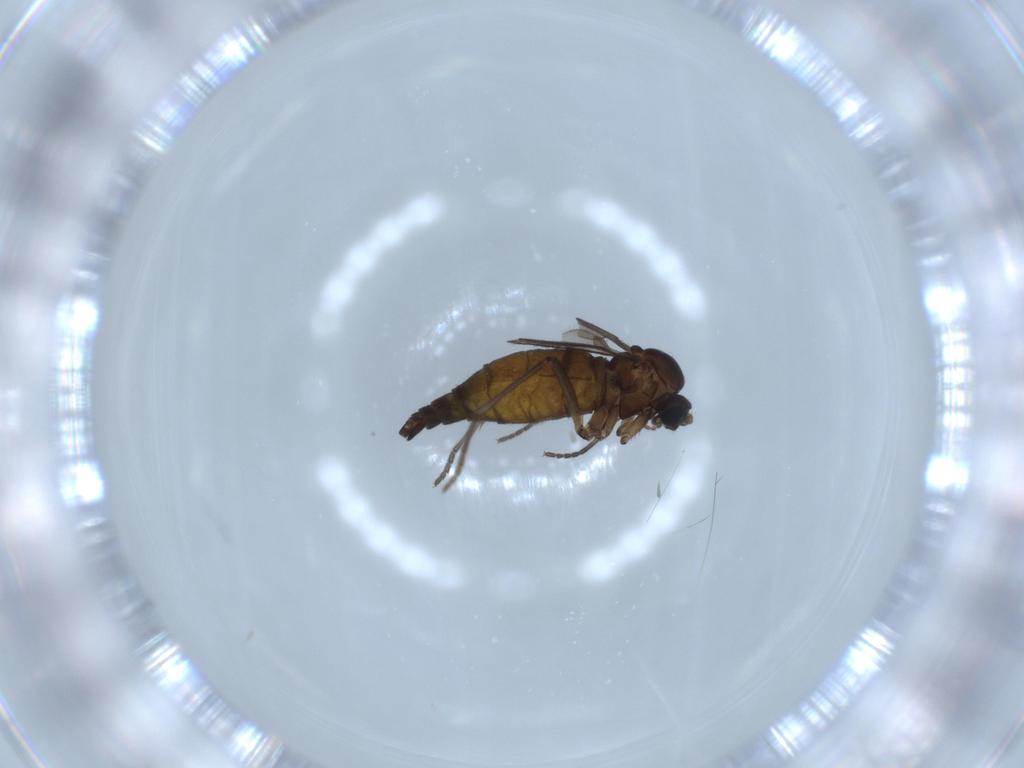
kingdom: Animalia
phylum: Arthropoda
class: Insecta
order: Diptera
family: Sciaridae
